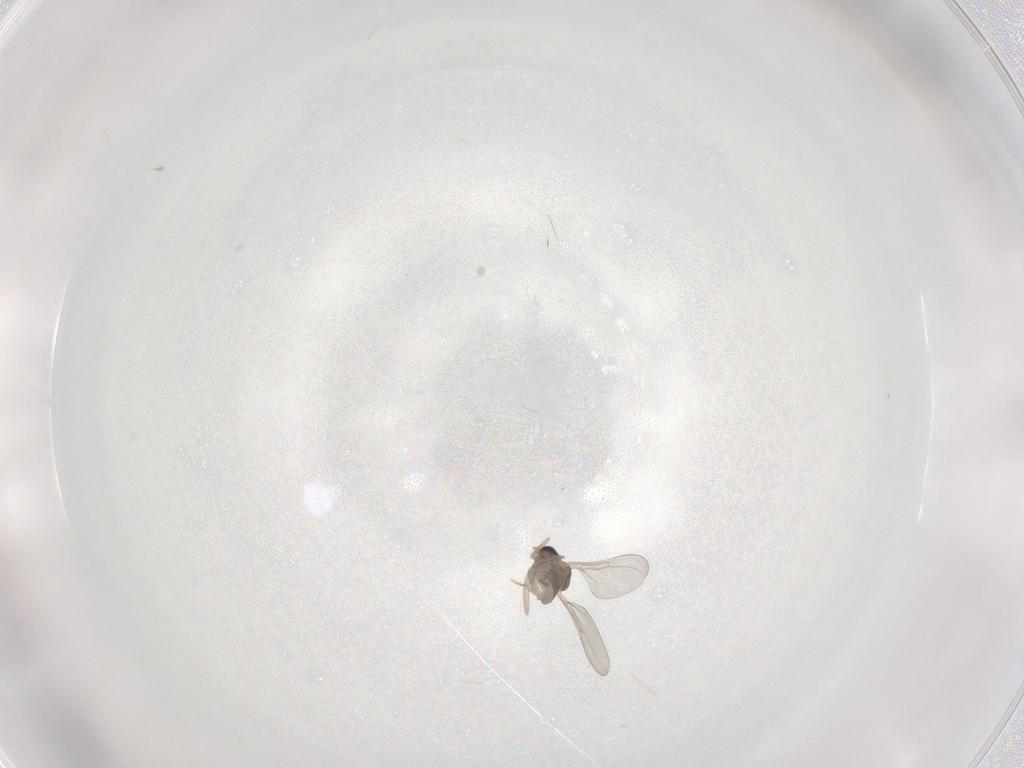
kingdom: Animalia
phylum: Arthropoda
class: Insecta
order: Diptera
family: Cecidomyiidae
